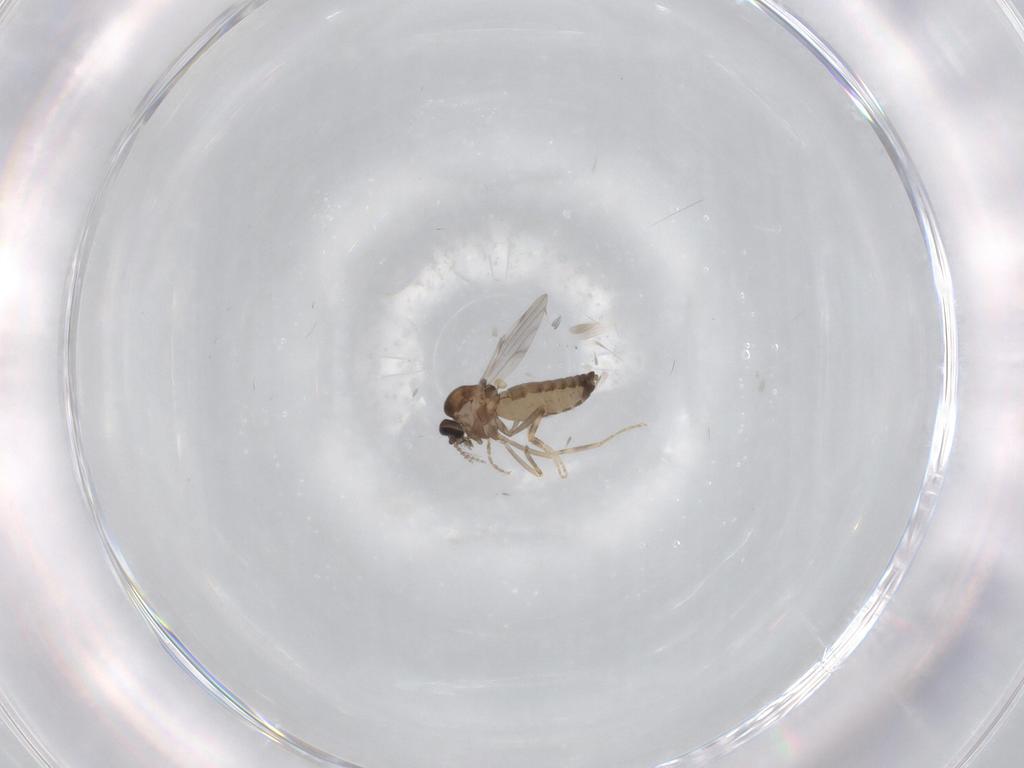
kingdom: Animalia
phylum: Arthropoda
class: Insecta
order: Diptera
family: Ceratopogonidae
